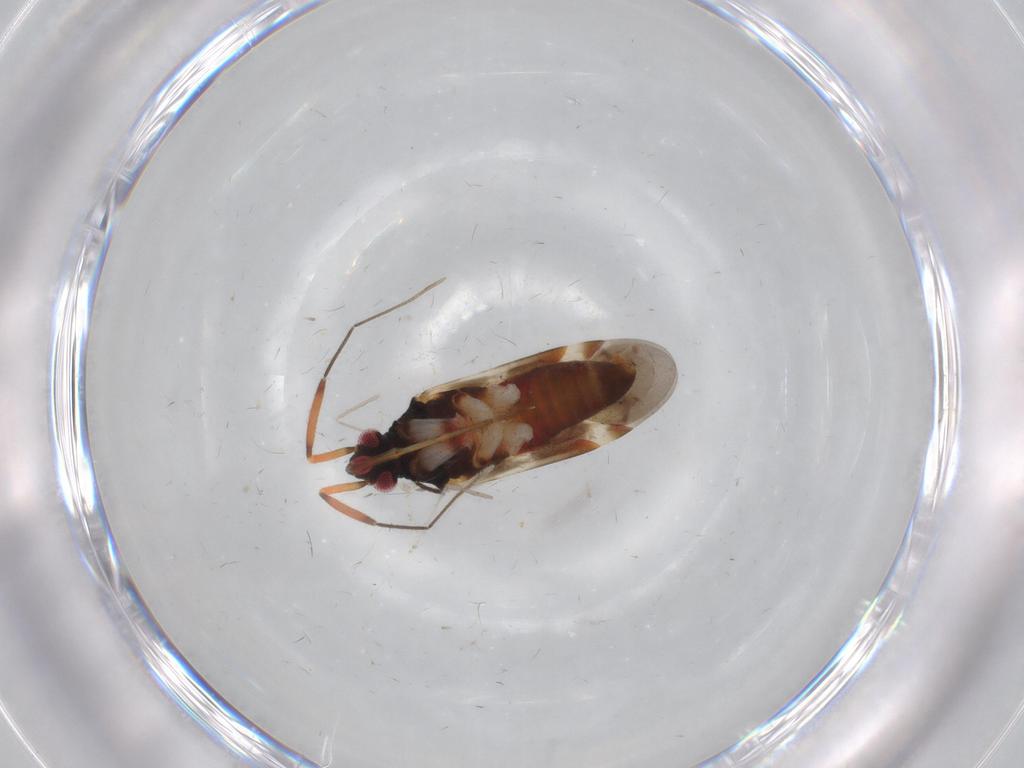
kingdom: Animalia
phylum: Arthropoda
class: Insecta
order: Hemiptera
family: Miridae
